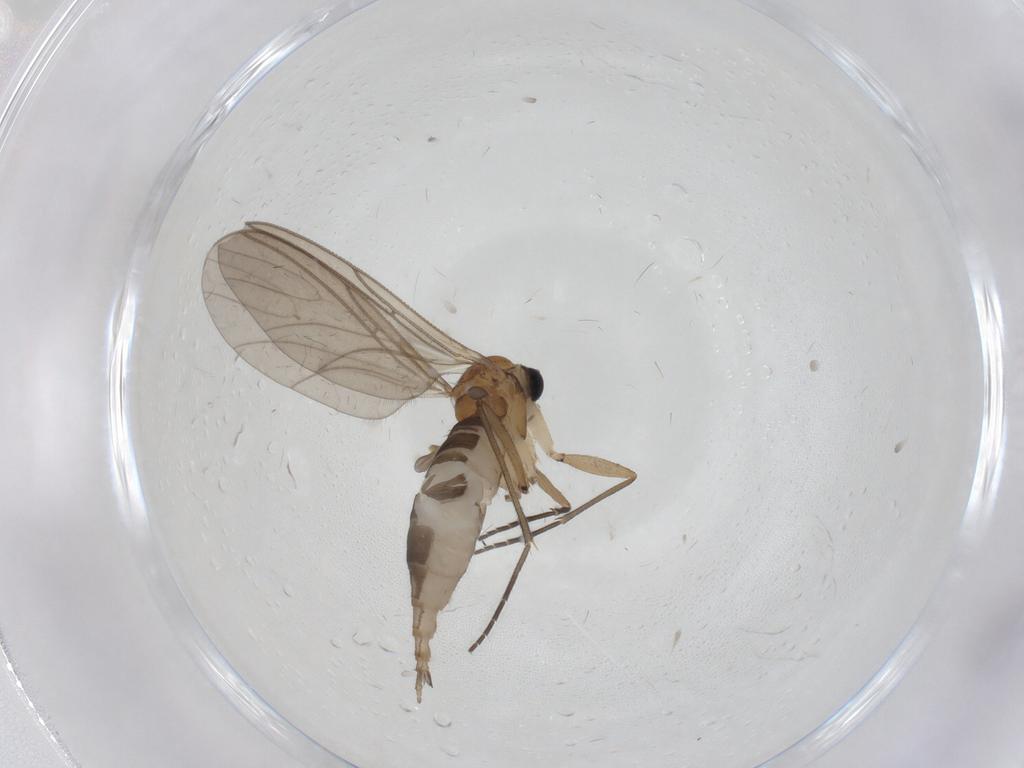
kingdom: Animalia
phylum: Arthropoda
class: Insecta
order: Diptera
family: Sciaridae
